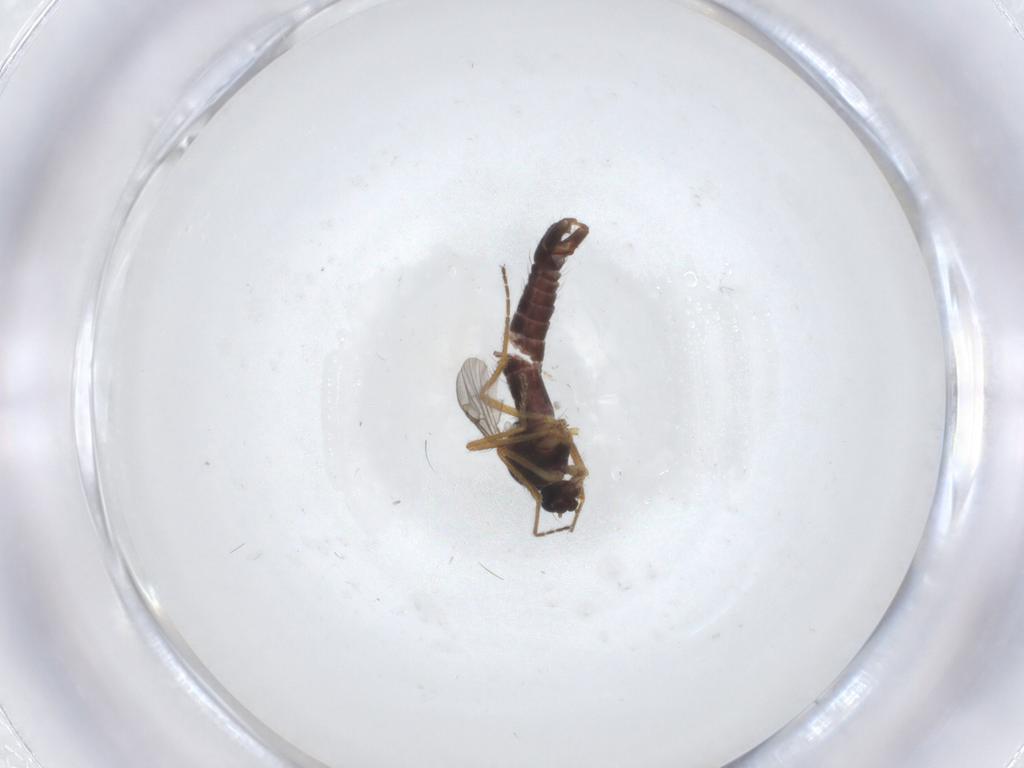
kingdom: Animalia
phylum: Arthropoda
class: Insecta
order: Diptera
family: Ceratopogonidae
